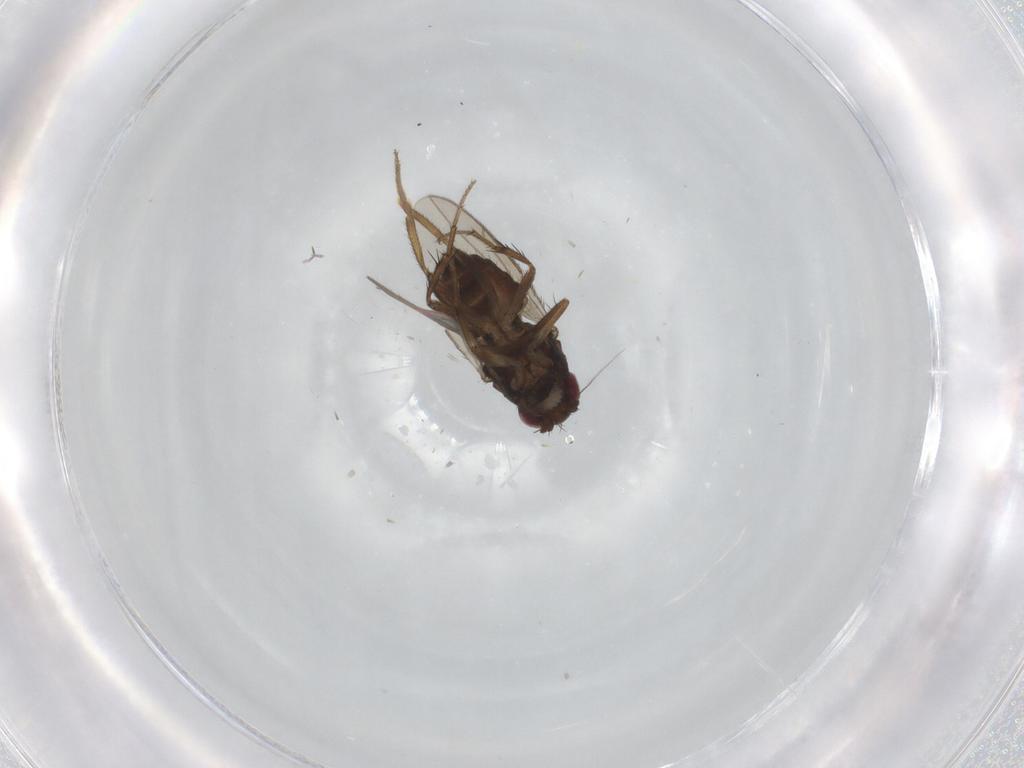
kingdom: Animalia
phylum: Arthropoda
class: Insecta
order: Diptera
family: Sphaeroceridae
